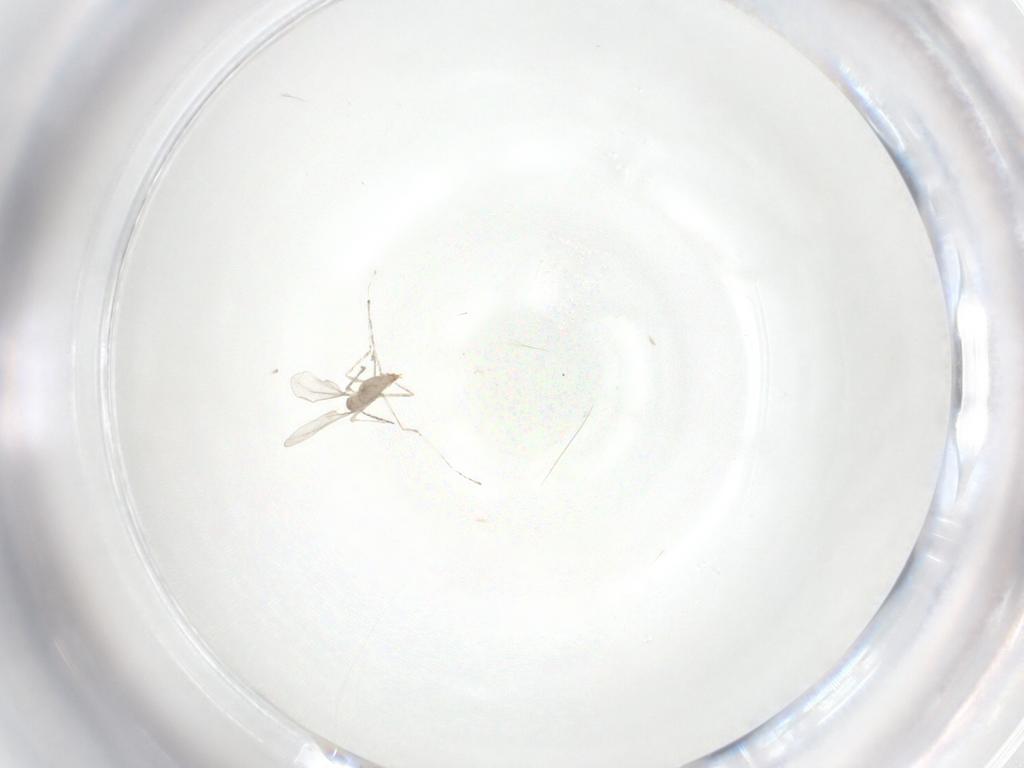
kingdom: Animalia
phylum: Arthropoda
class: Insecta
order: Diptera
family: Cecidomyiidae
